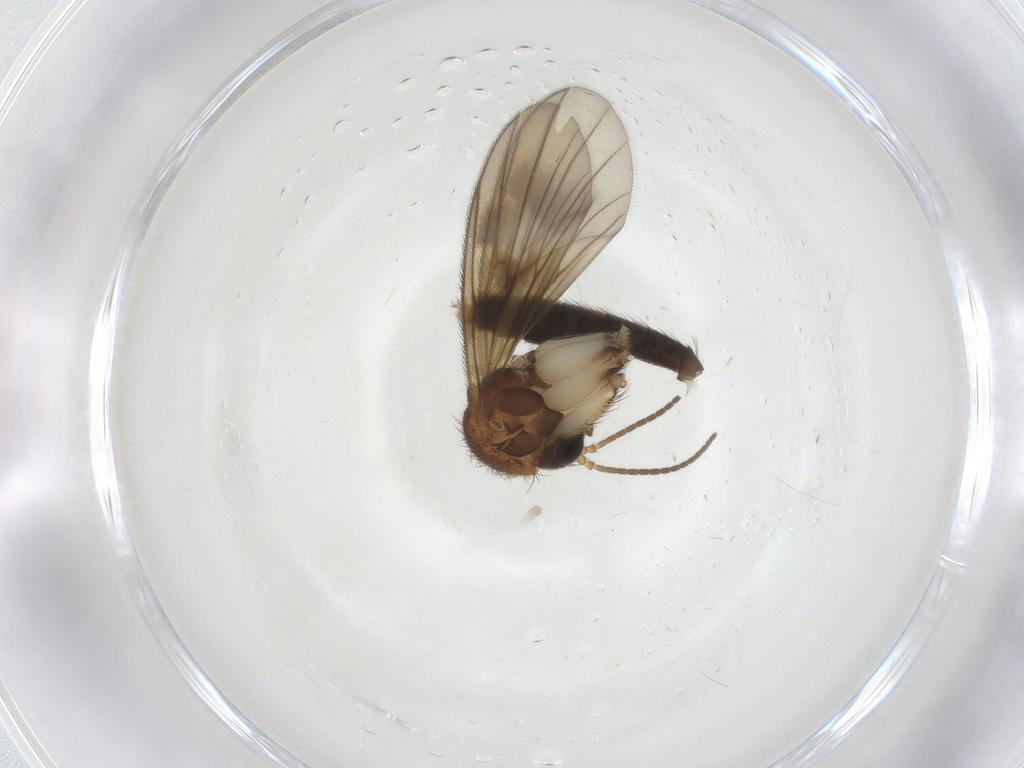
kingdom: Animalia
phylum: Arthropoda
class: Insecta
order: Diptera
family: Mycetophilidae
